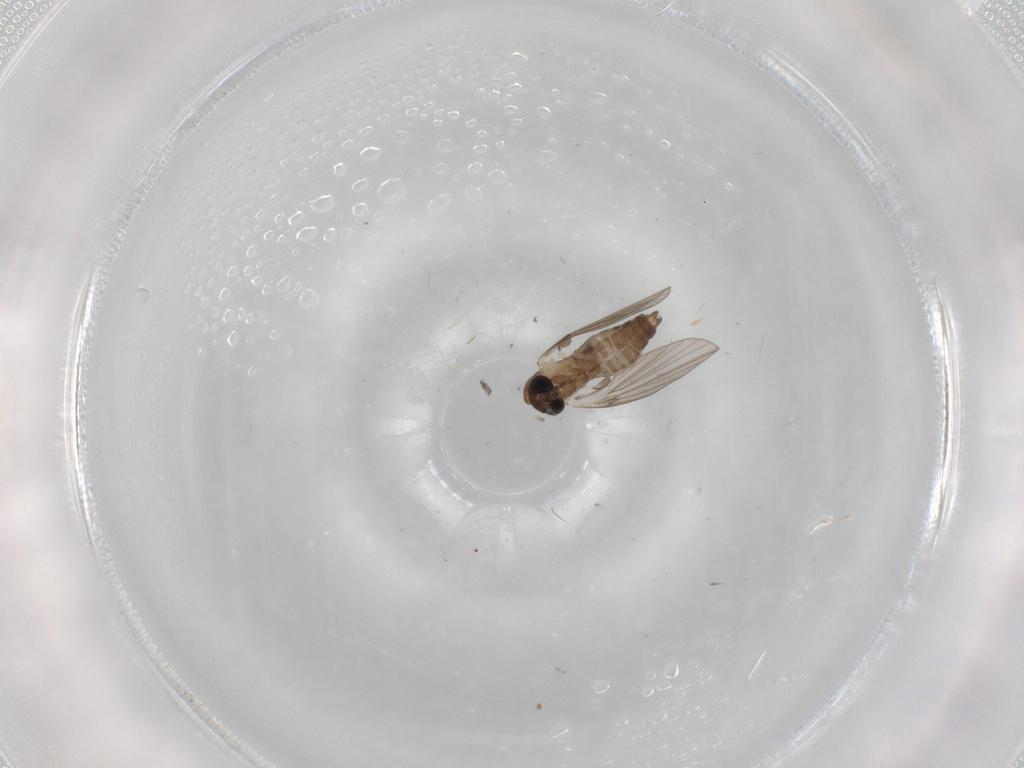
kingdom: Animalia
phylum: Arthropoda
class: Insecta
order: Diptera
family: Psychodidae
